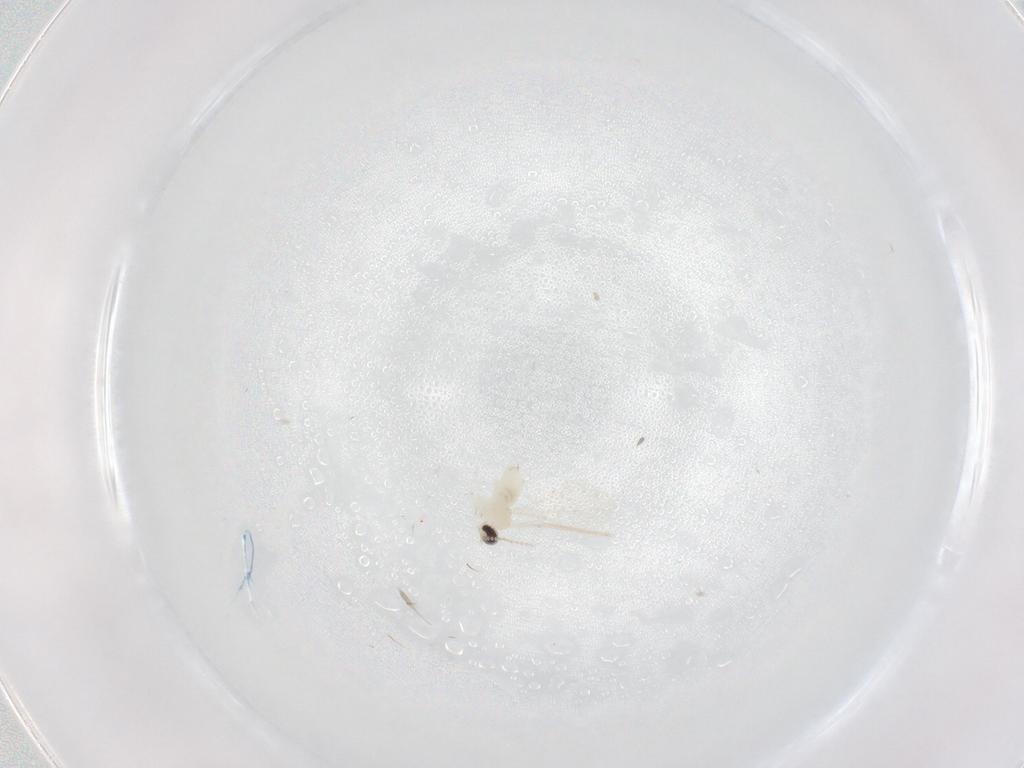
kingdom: Animalia
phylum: Arthropoda
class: Insecta
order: Diptera
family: Cecidomyiidae
